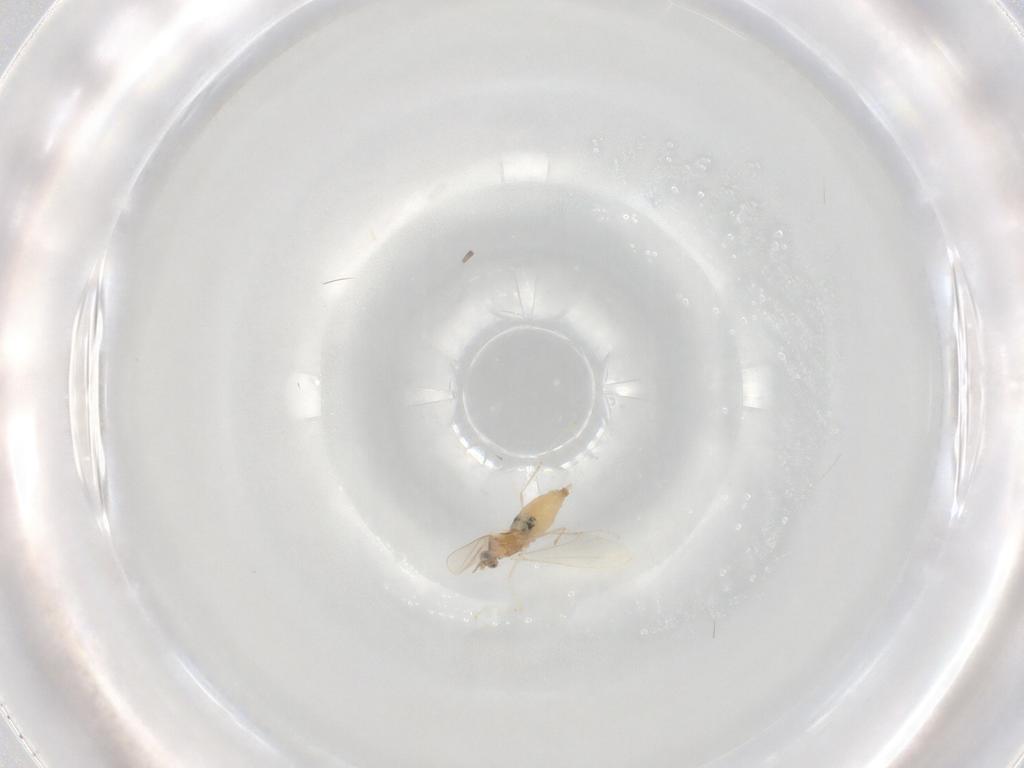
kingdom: Animalia
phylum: Arthropoda
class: Insecta
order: Diptera
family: Cecidomyiidae
